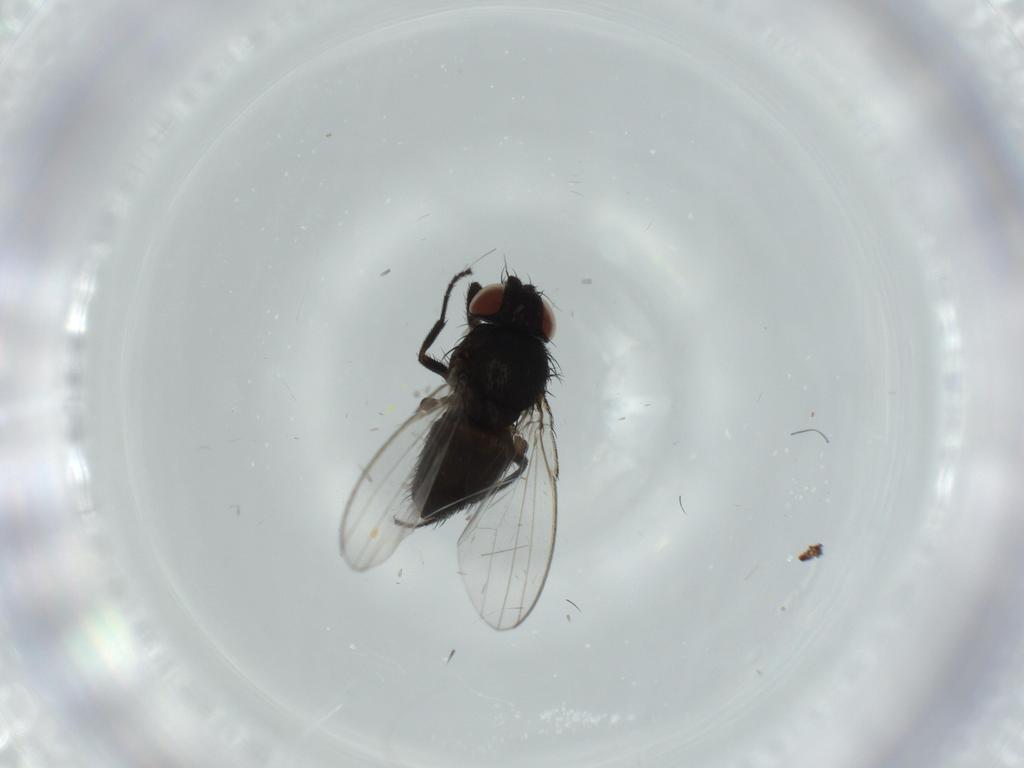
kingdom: Animalia
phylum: Arthropoda
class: Insecta
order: Diptera
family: Milichiidae
